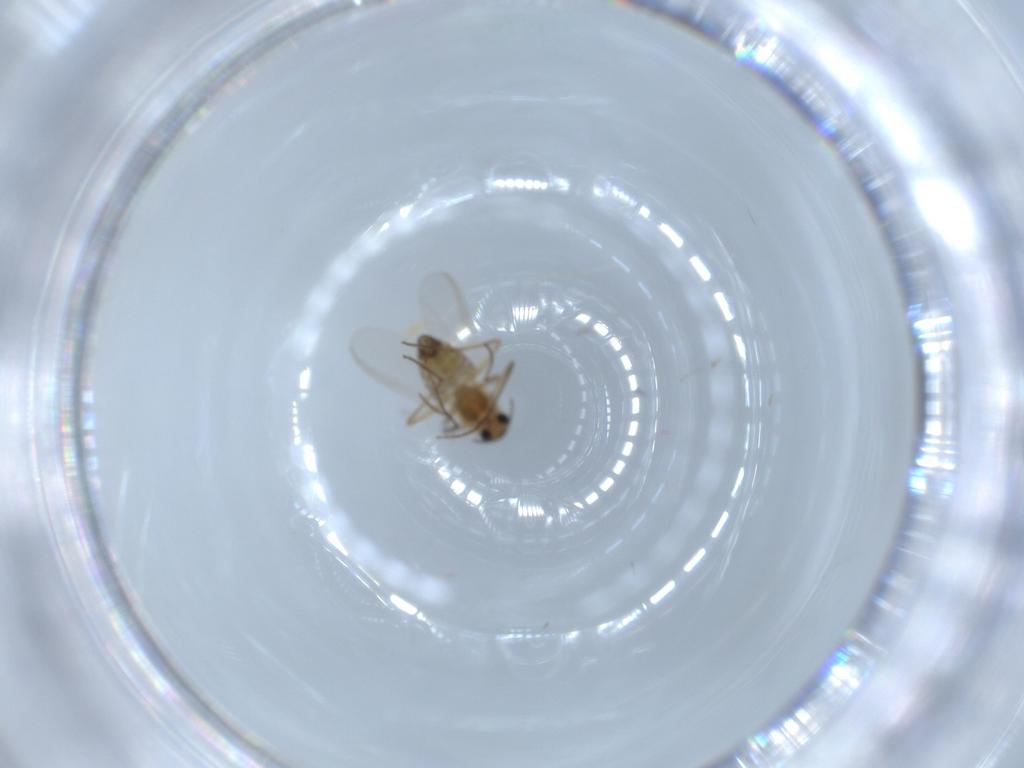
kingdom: Animalia
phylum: Arthropoda
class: Insecta
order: Diptera
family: Chironomidae
